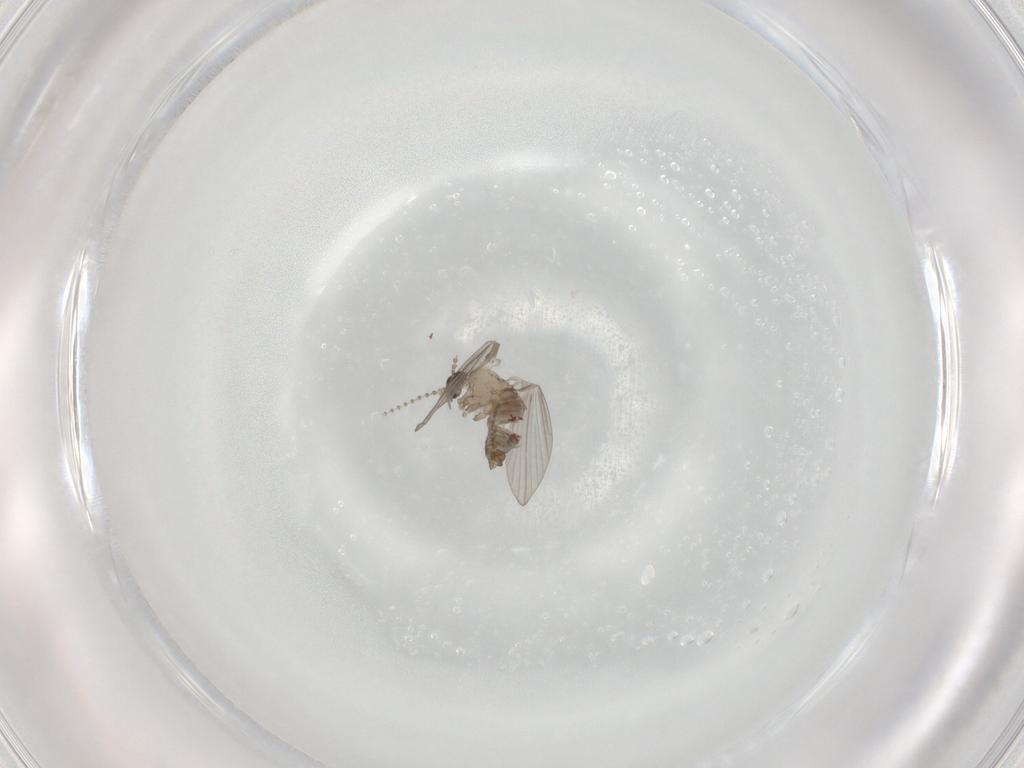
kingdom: Animalia
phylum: Arthropoda
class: Insecta
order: Diptera
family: Psychodidae
